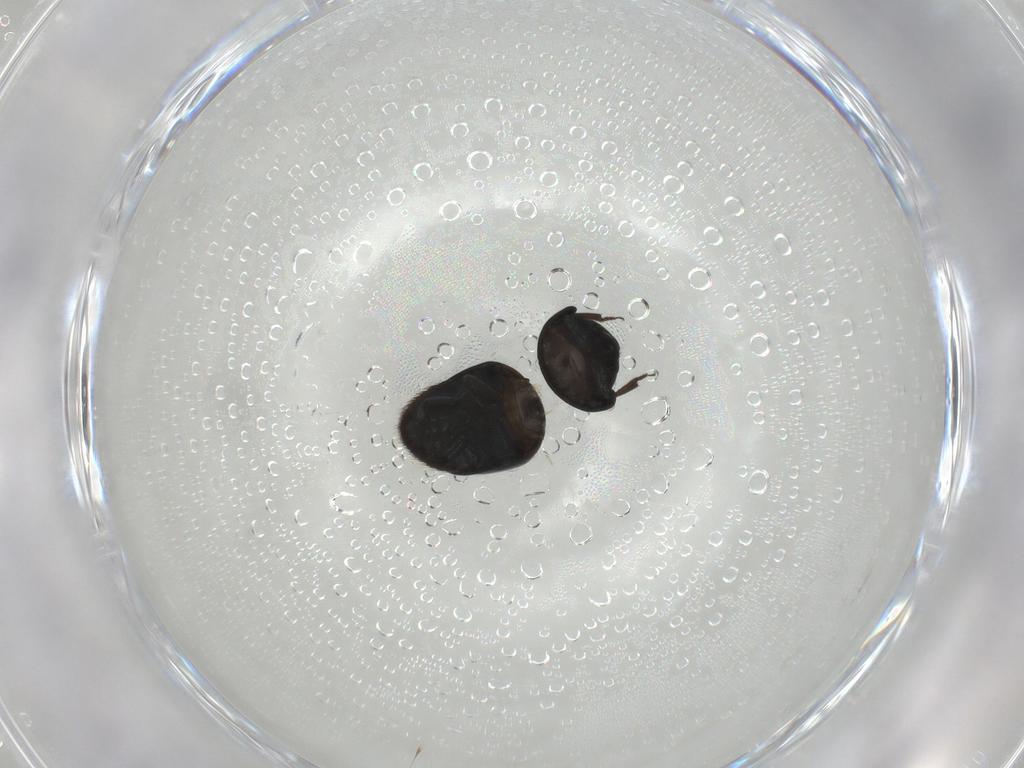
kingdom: Animalia
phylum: Arthropoda
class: Insecta
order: Coleoptera
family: Cybocephalidae
